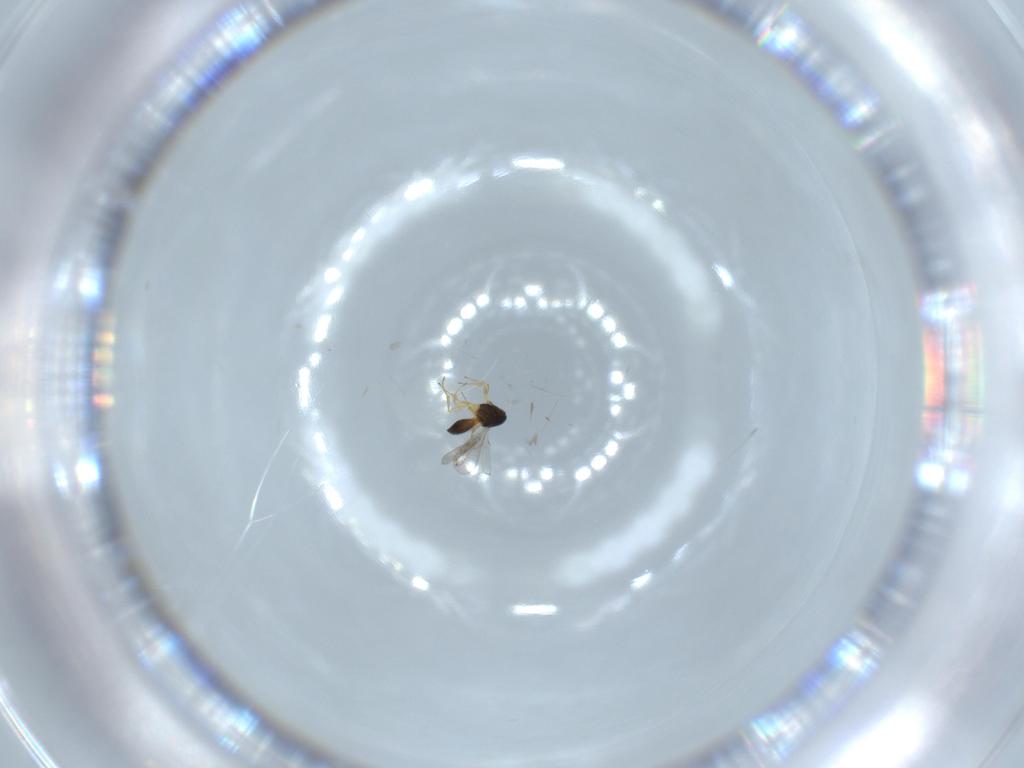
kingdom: Animalia
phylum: Arthropoda
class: Insecta
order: Hymenoptera
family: Scelionidae
